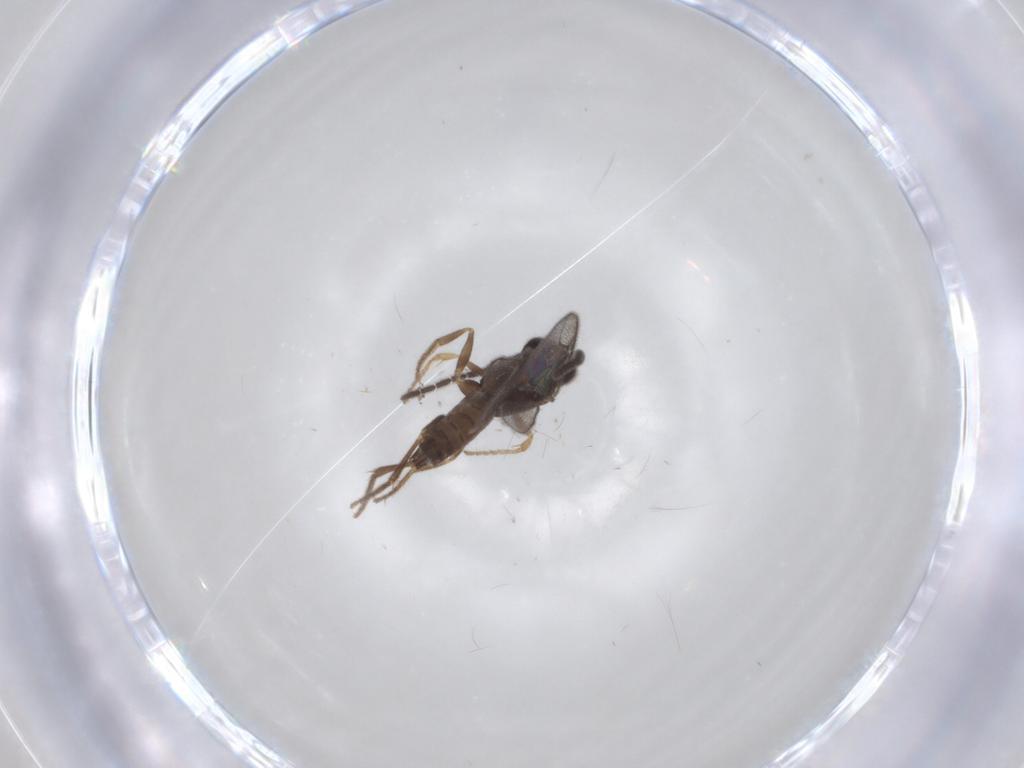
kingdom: Animalia
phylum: Arthropoda
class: Insecta
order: Hymenoptera
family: Dryinidae
